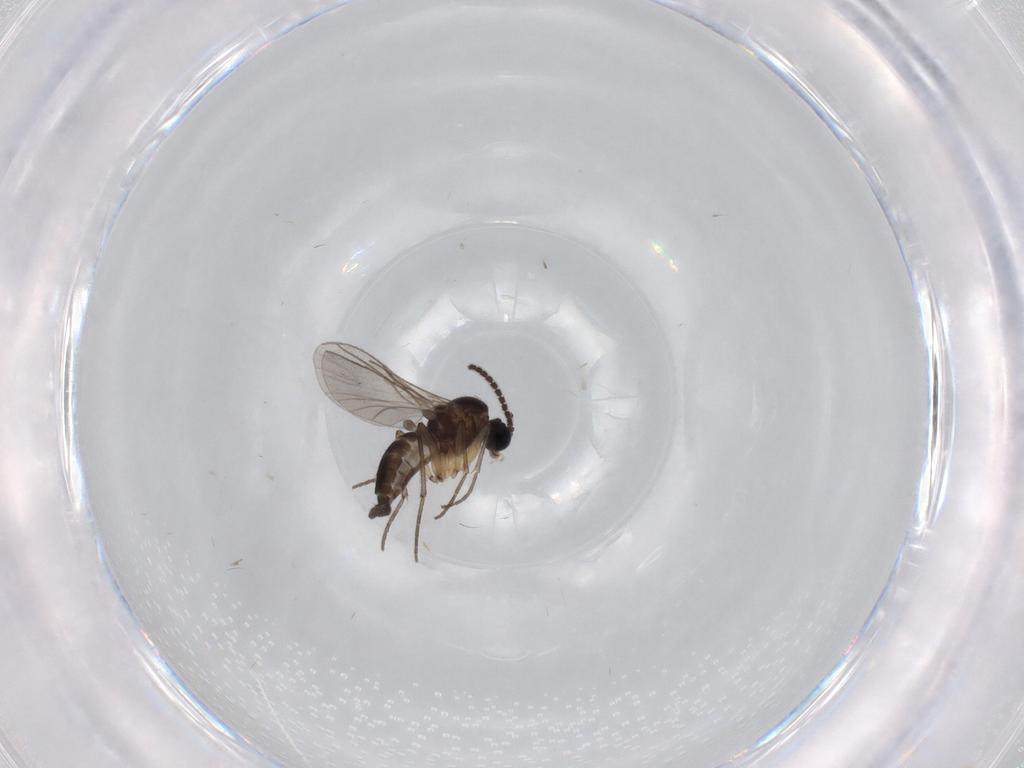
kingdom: Animalia
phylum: Arthropoda
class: Insecta
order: Diptera
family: Sciaridae
